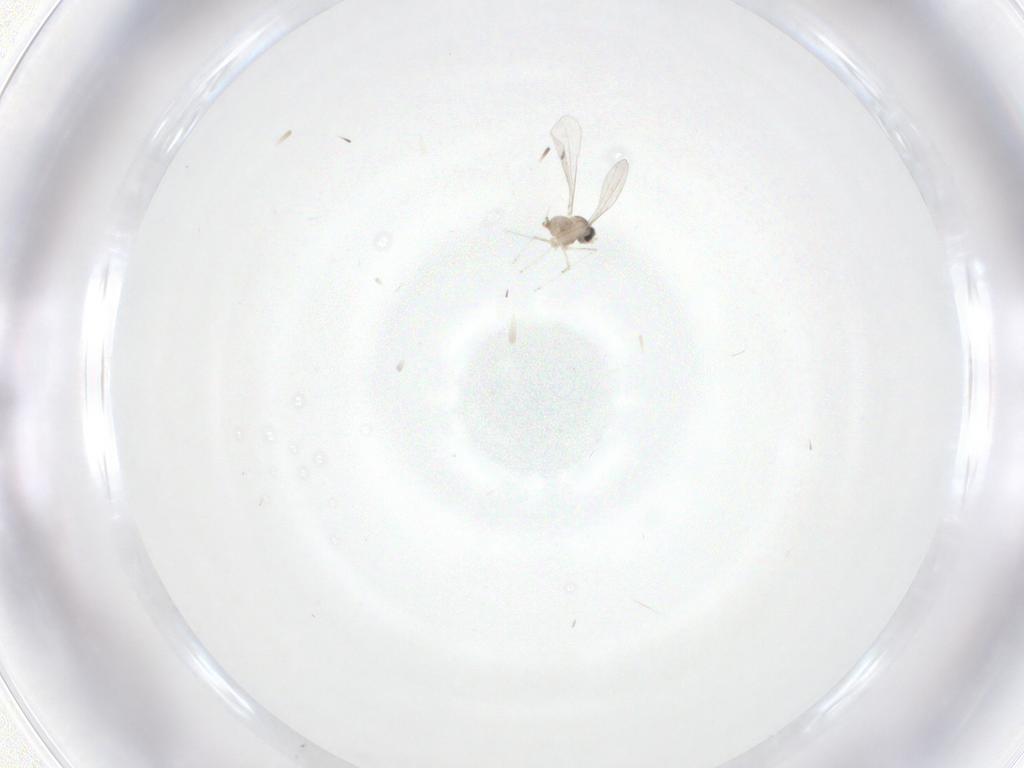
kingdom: Animalia
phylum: Arthropoda
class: Insecta
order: Diptera
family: Cecidomyiidae
